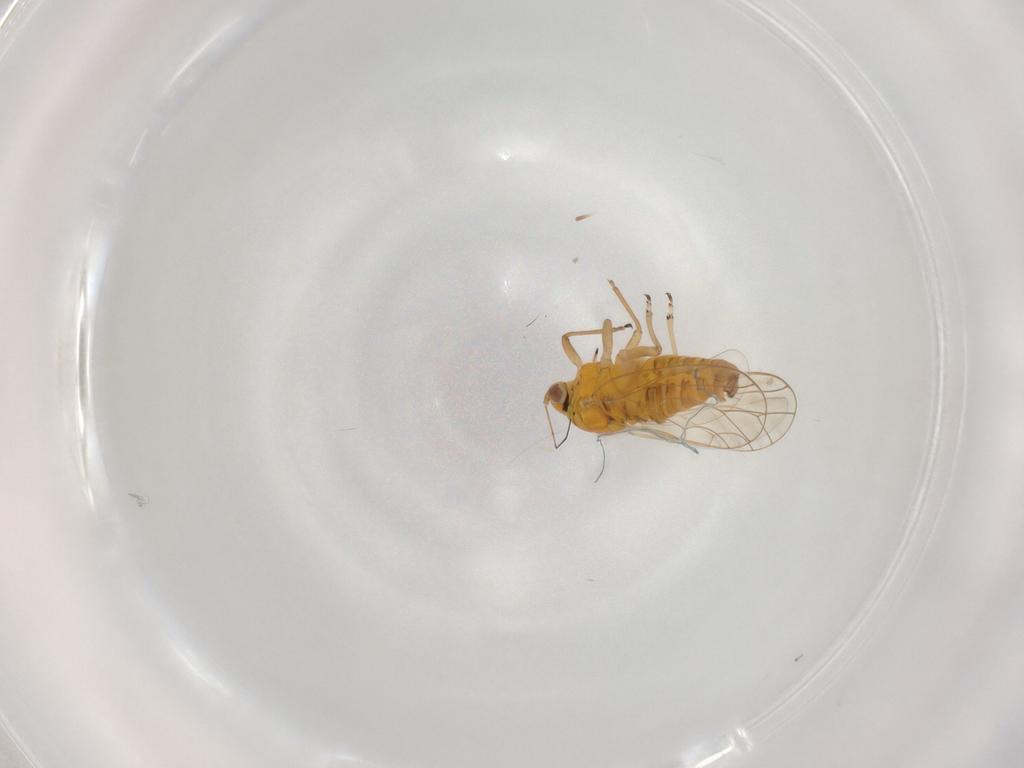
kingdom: Animalia
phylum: Arthropoda
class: Insecta
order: Hemiptera
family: Psyllidae
